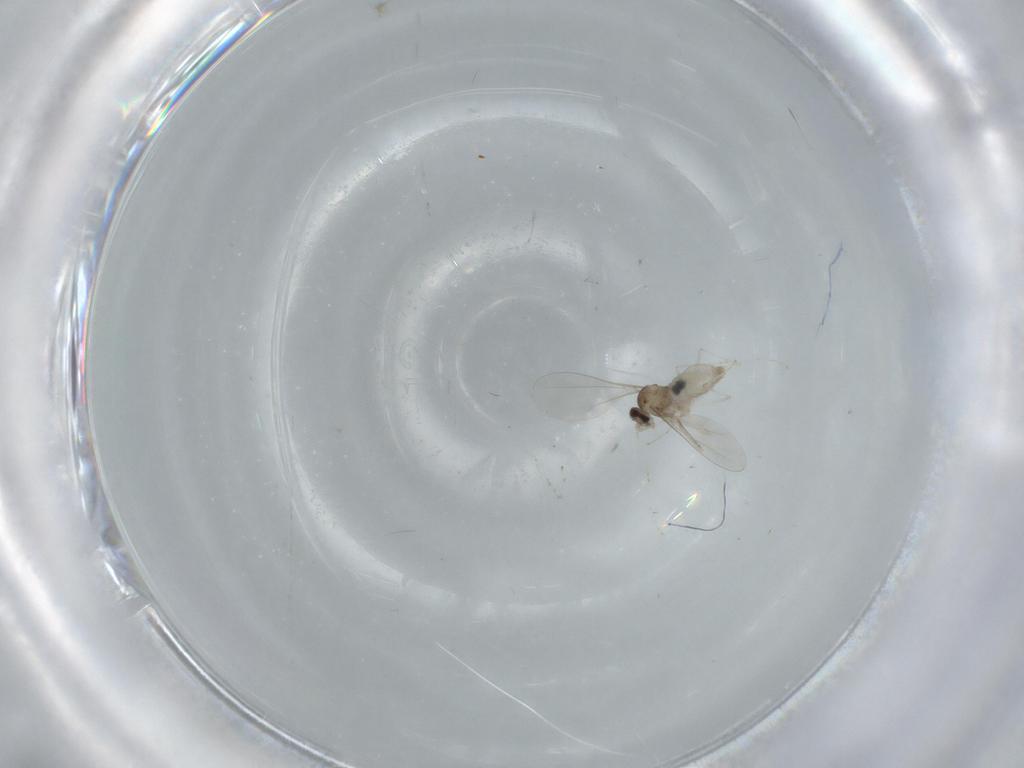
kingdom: Animalia
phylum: Arthropoda
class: Insecta
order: Diptera
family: Cecidomyiidae
